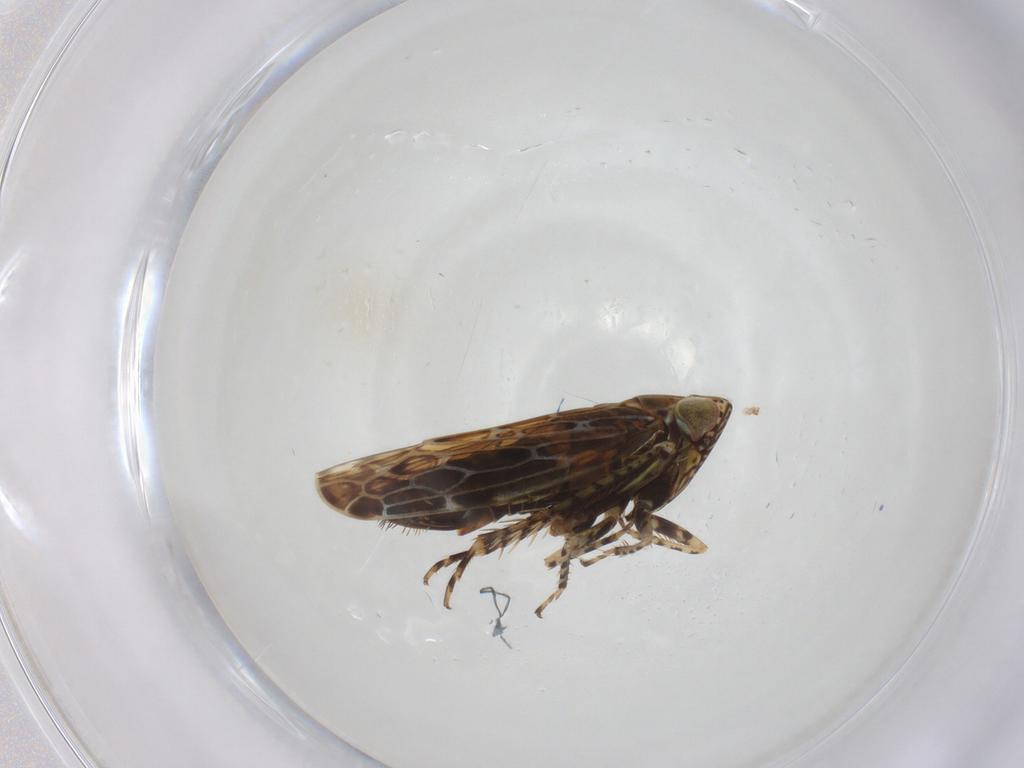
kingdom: Animalia
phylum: Arthropoda
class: Insecta
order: Hemiptera
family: Cicadellidae
